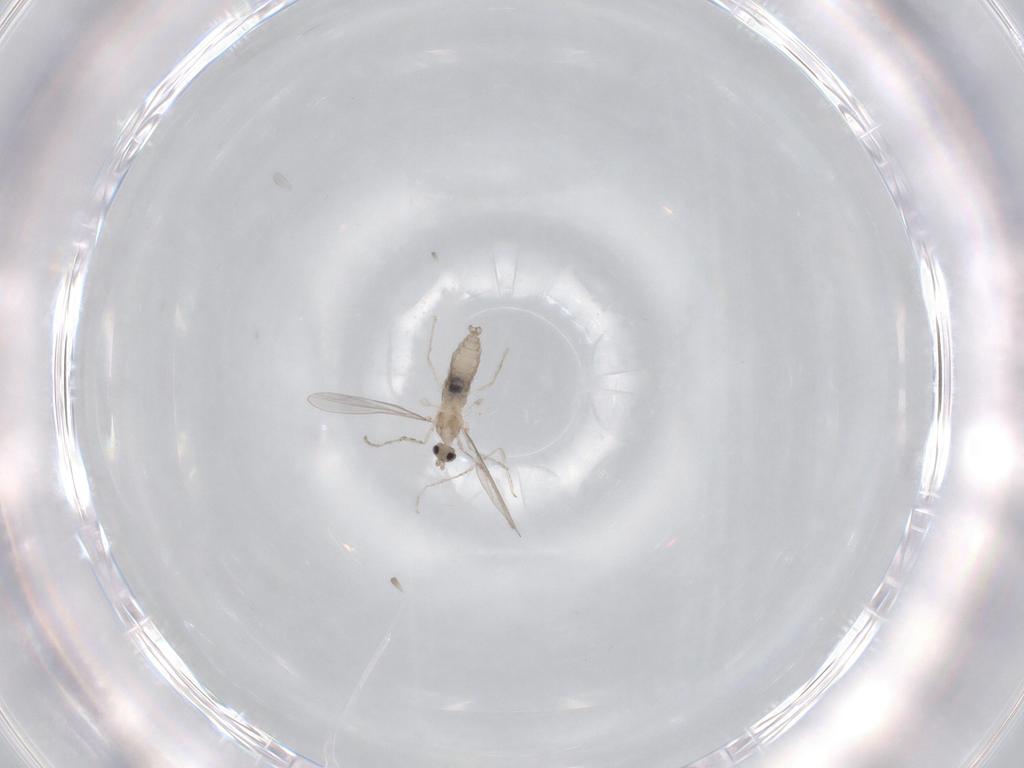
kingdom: Animalia
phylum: Arthropoda
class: Insecta
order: Diptera
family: Cecidomyiidae
